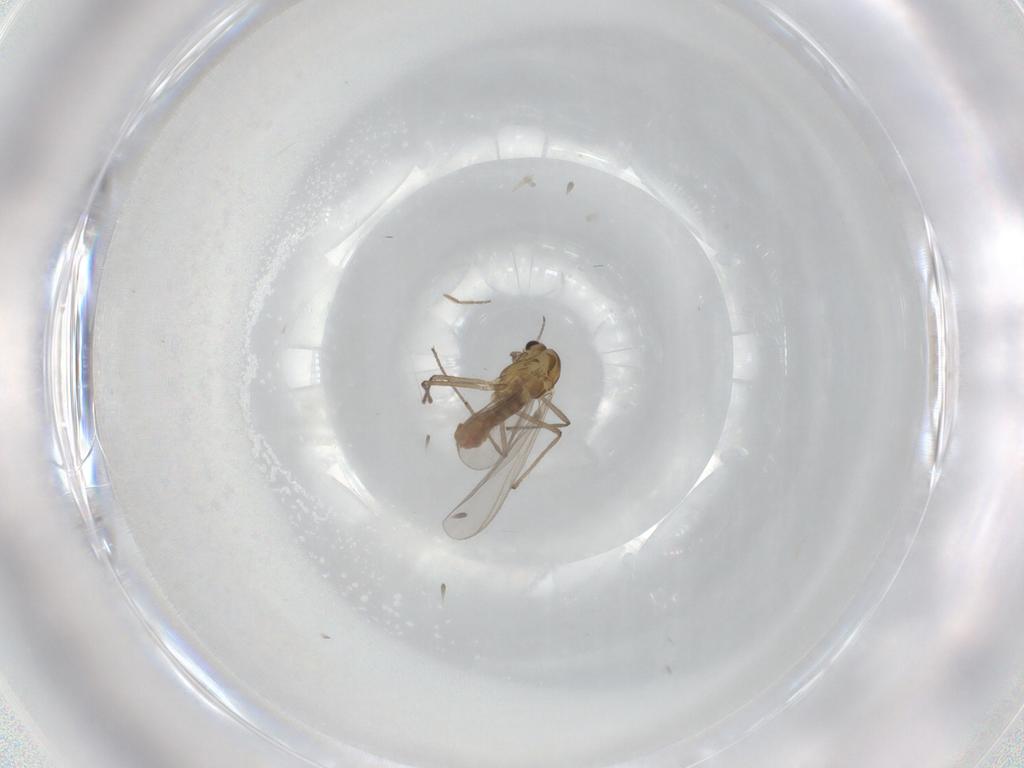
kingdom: Animalia
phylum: Arthropoda
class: Insecta
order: Diptera
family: Chironomidae
